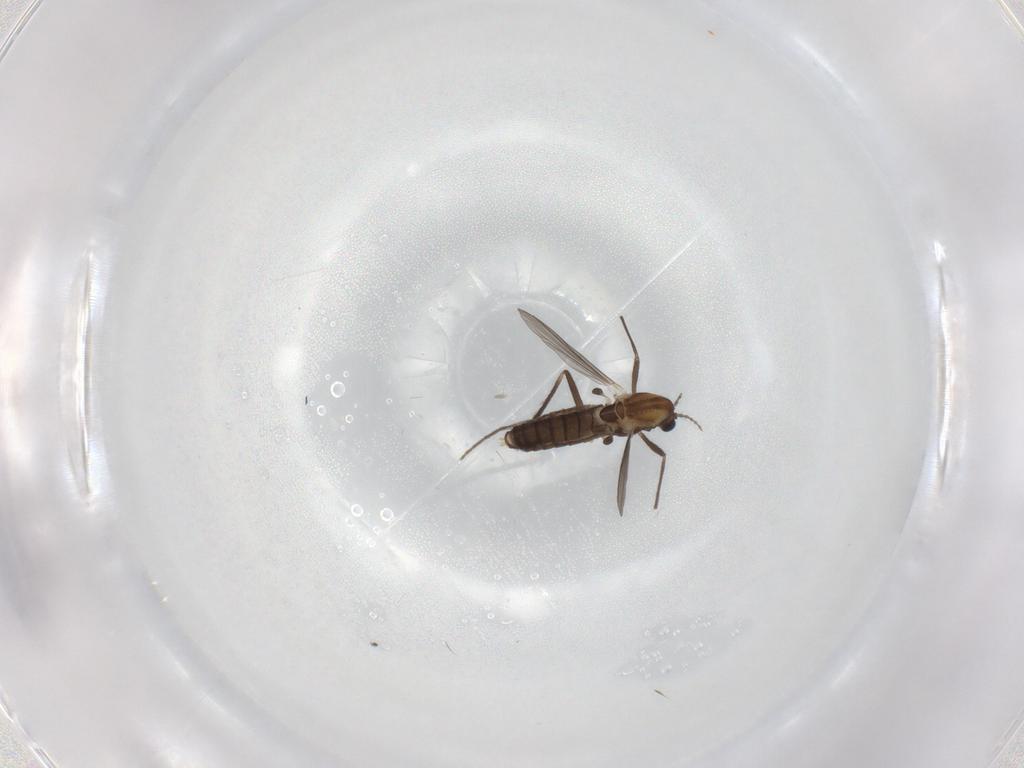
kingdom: Animalia
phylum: Arthropoda
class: Insecta
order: Diptera
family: Chironomidae
